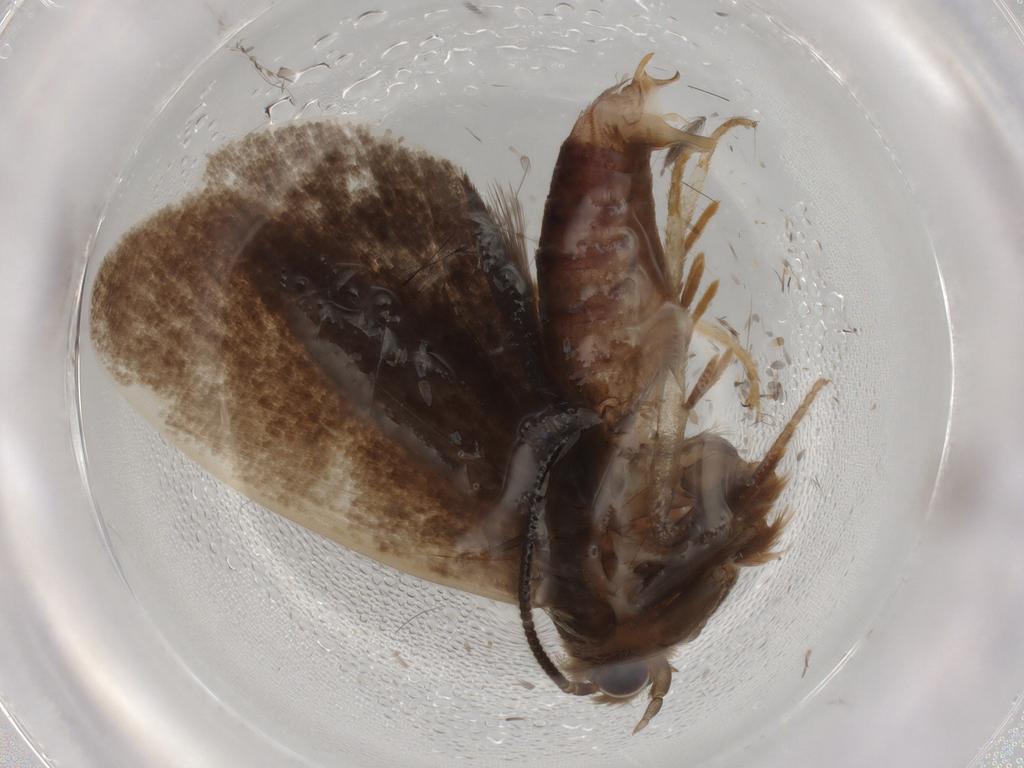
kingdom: Animalia
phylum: Arthropoda
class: Insecta
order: Lepidoptera
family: Tineidae
